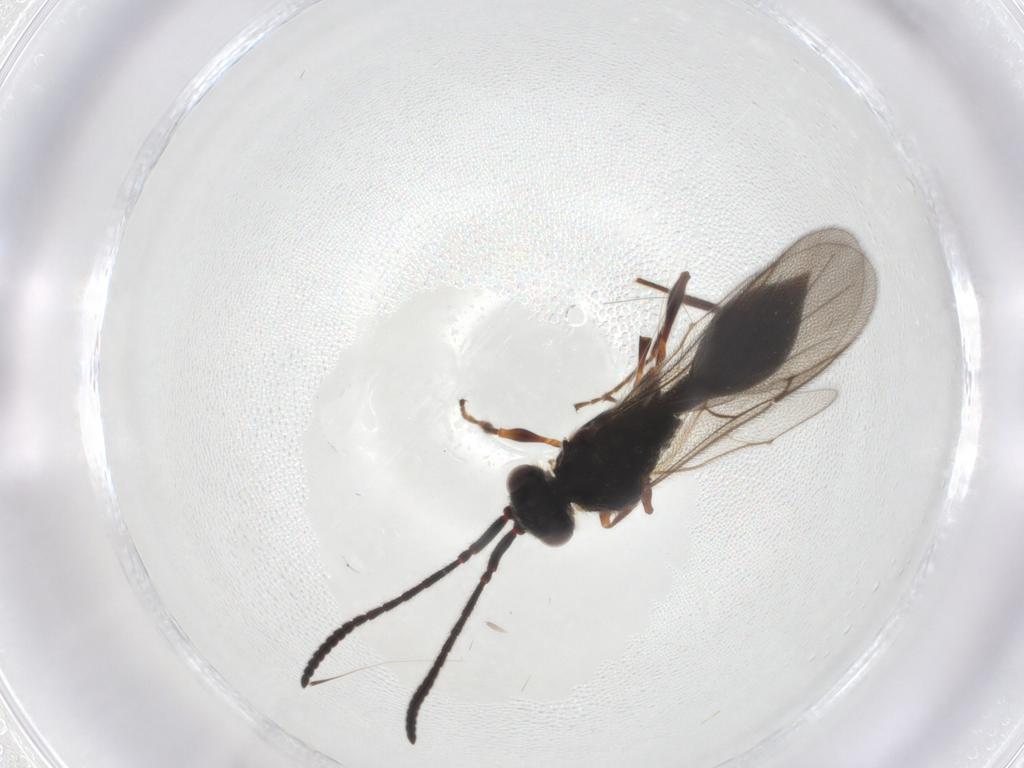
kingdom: Animalia
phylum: Arthropoda
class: Insecta
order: Hymenoptera
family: Diapriidae
